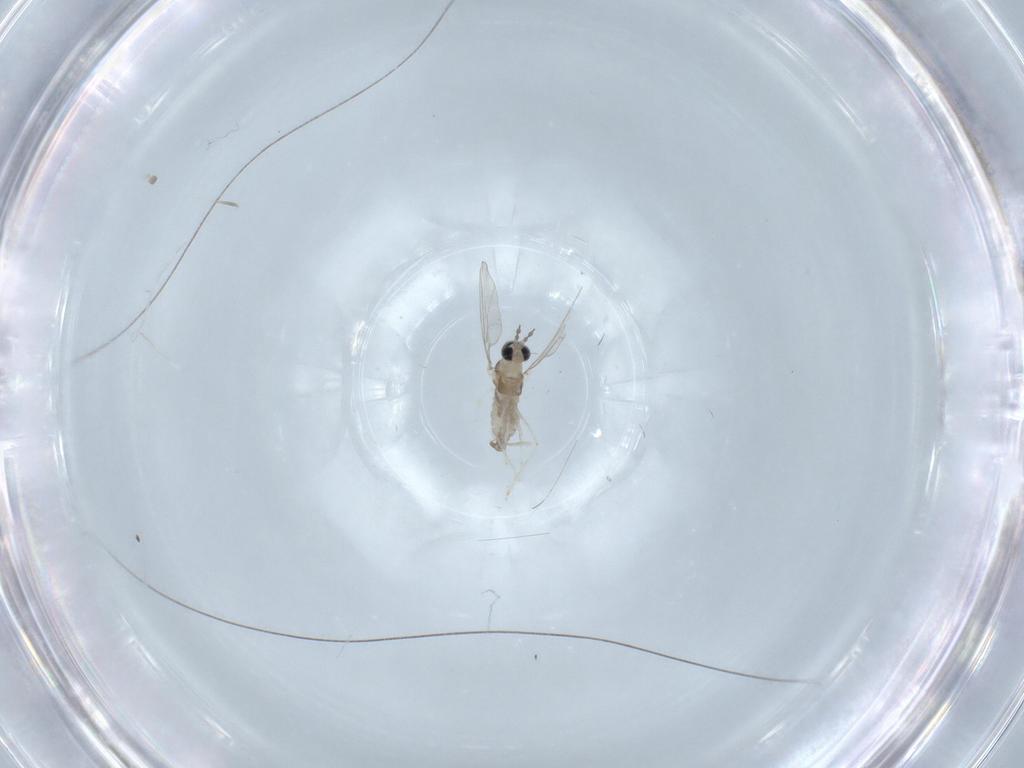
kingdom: Animalia
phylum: Arthropoda
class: Insecta
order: Diptera
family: Cecidomyiidae
